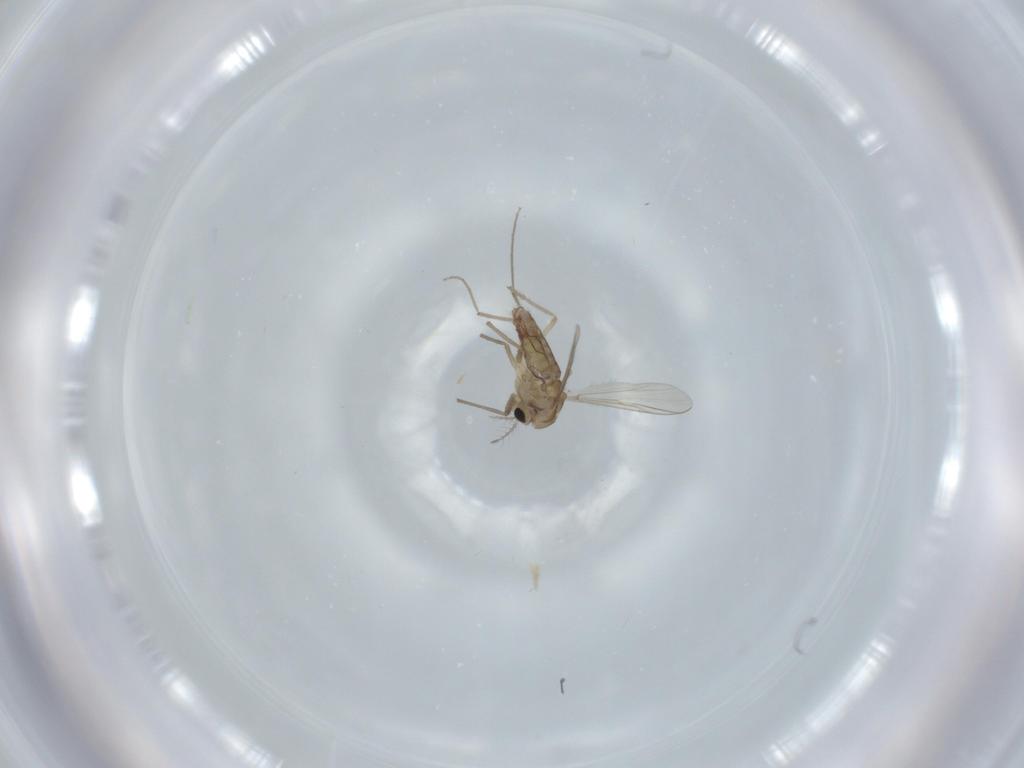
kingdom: Animalia
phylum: Arthropoda
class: Insecta
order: Diptera
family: Chironomidae
